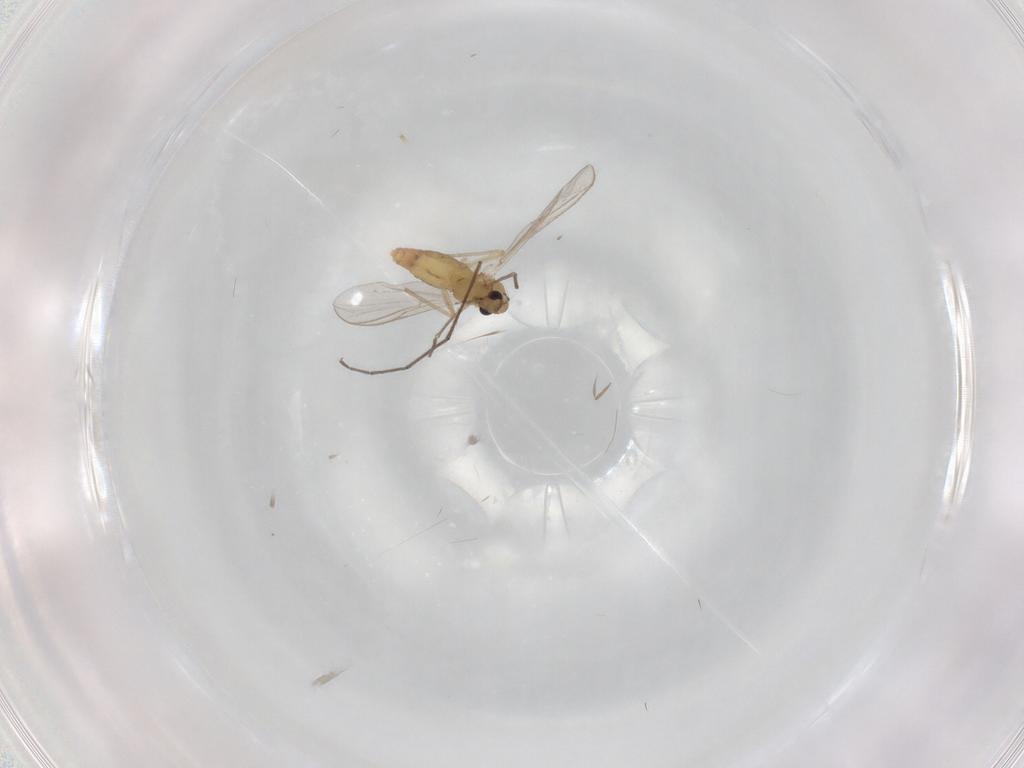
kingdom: Animalia
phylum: Arthropoda
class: Insecta
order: Diptera
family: Chironomidae
